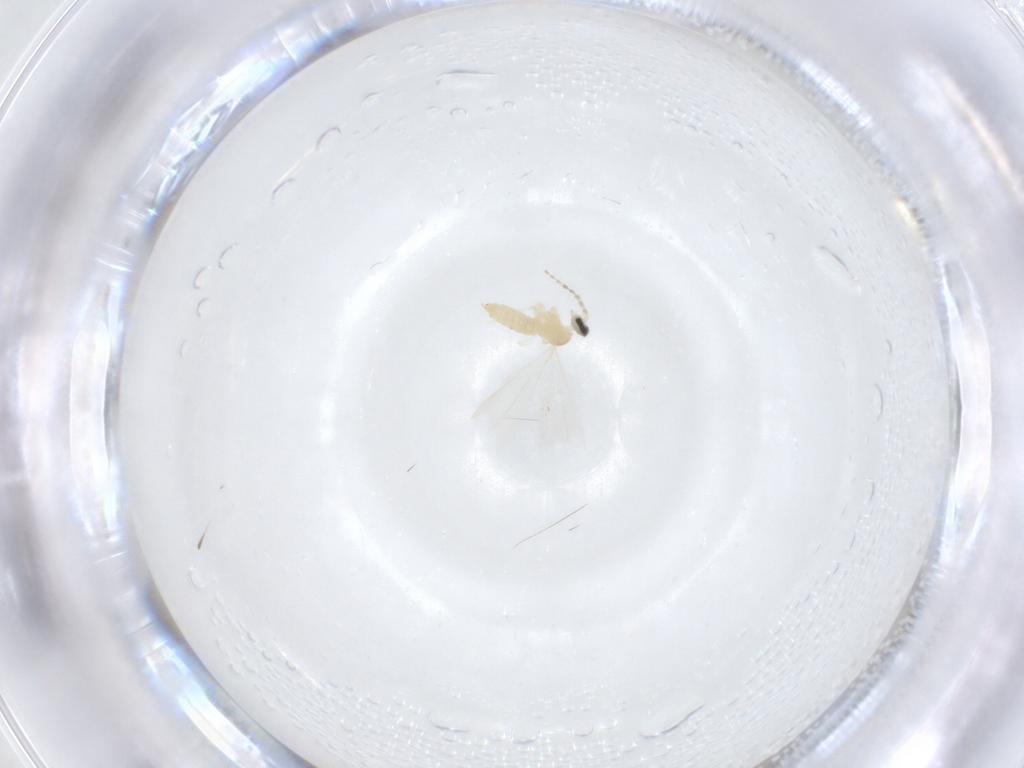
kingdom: Animalia
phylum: Arthropoda
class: Insecta
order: Diptera
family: Cecidomyiidae
